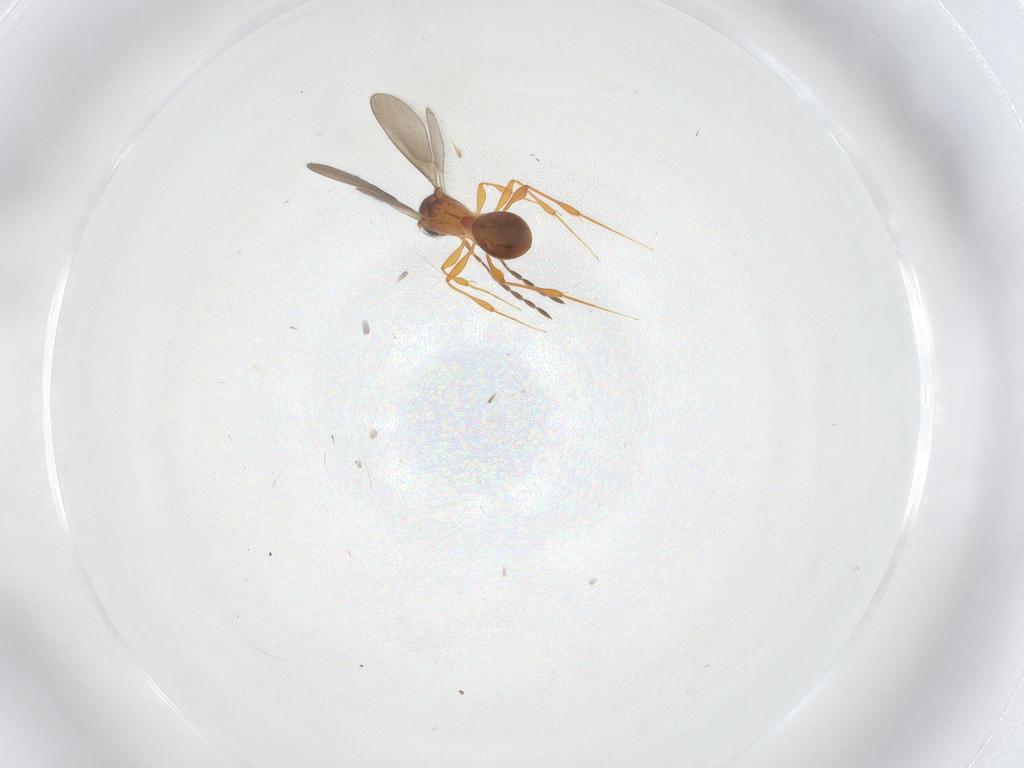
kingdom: Animalia
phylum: Arthropoda
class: Insecta
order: Hymenoptera
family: Platygastridae
